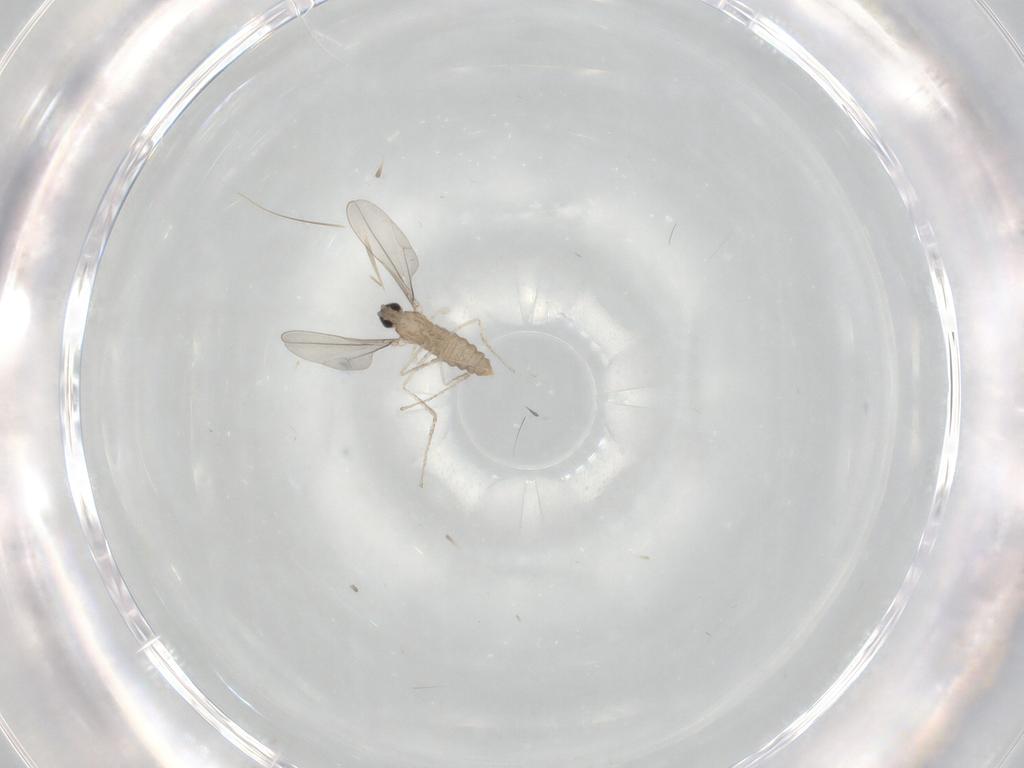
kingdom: Animalia
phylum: Arthropoda
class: Insecta
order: Diptera
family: Cecidomyiidae
